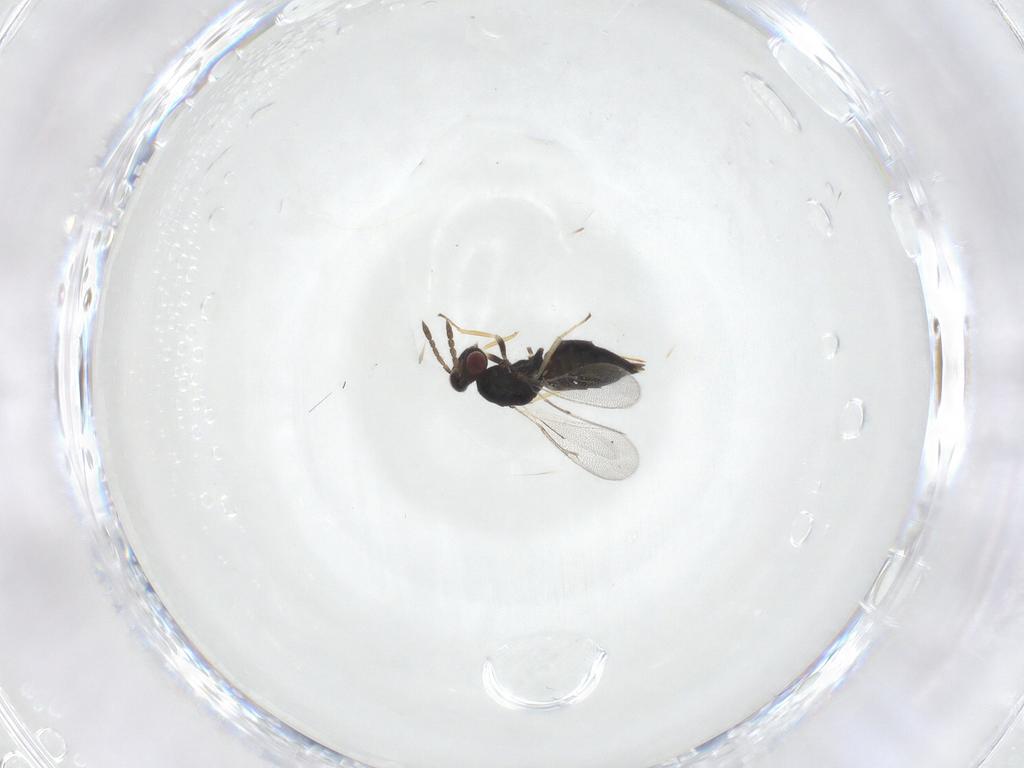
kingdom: Animalia
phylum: Arthropoda
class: Insecta
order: Hymenoptera
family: Eulophidae
